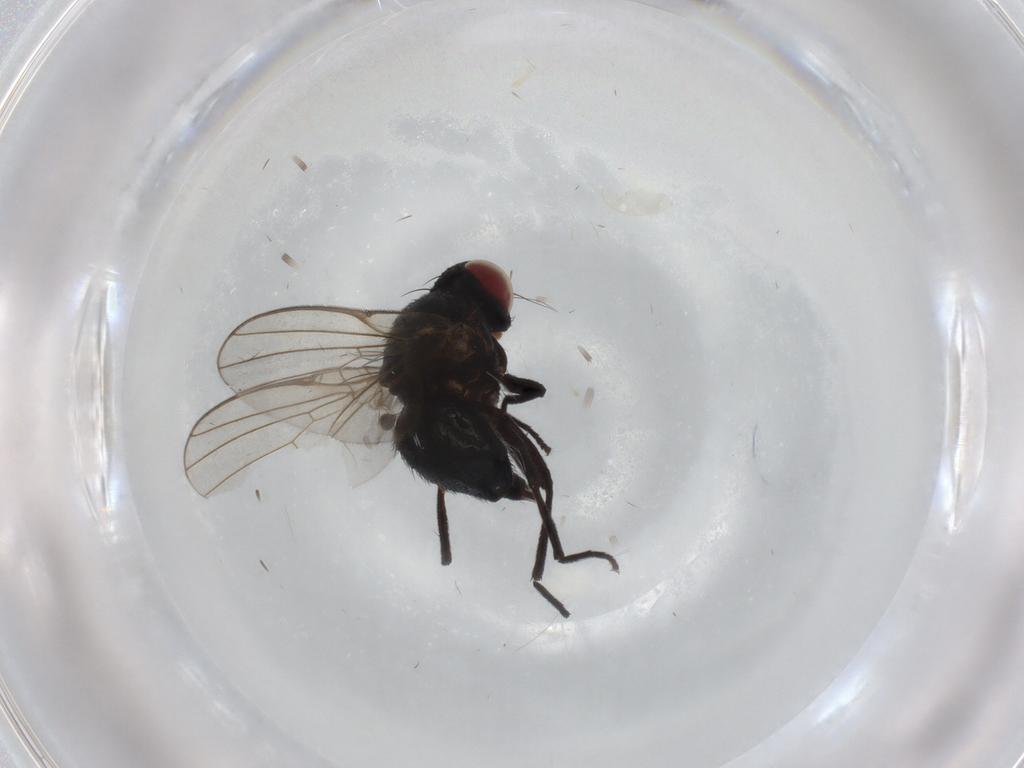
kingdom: Animalia
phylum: Arthropoda
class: Insecta
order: Diptera
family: Agromyzidae
